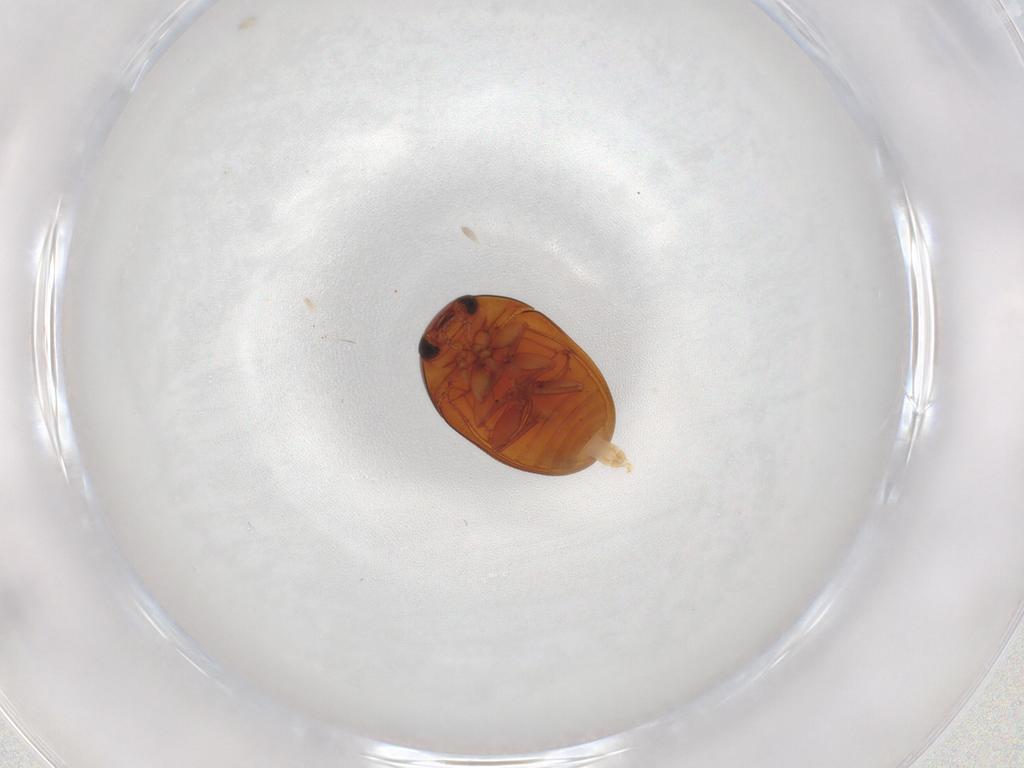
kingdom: Animalia
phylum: Arthropoda
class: Insecta
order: Coleoptera
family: Phalacridae
